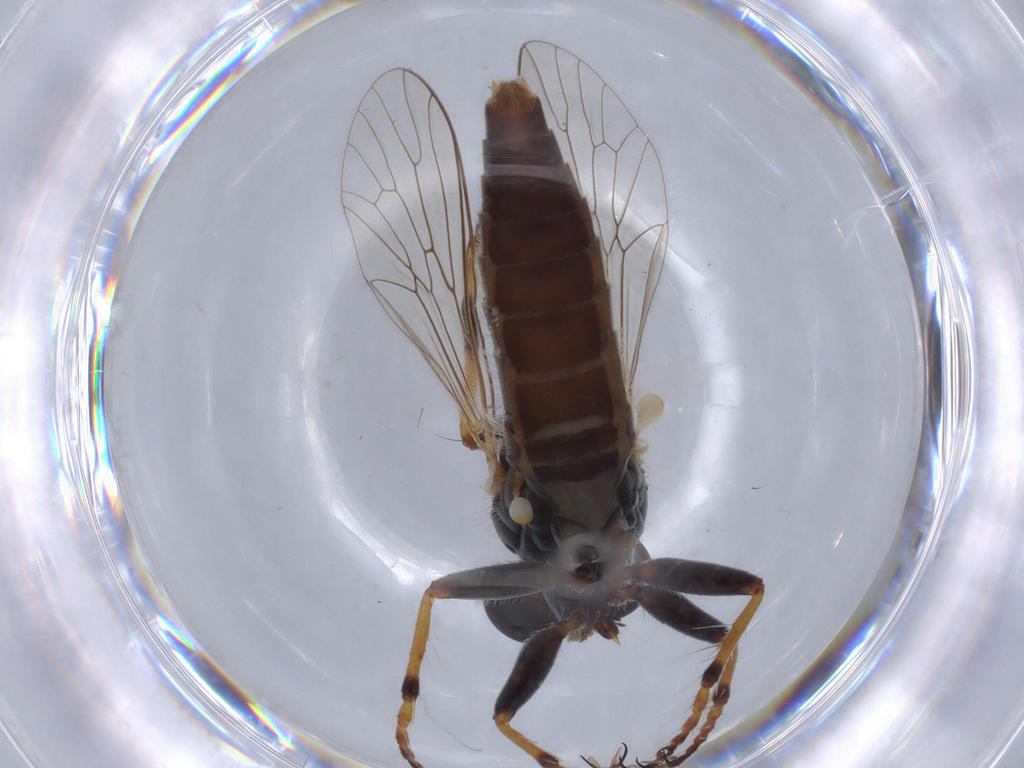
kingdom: Animalia
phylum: Arthropoda
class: Insecta
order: Diptera
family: Asilidae
